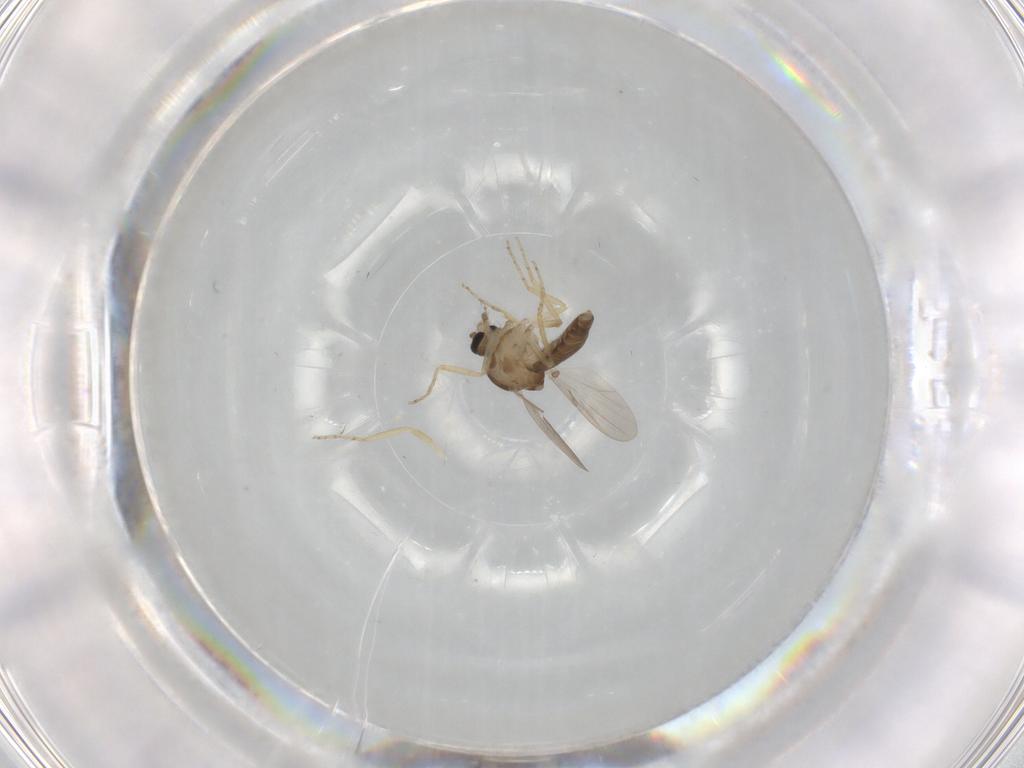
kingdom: Animalia
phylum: Arthropoda
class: Insecta
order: Diptera
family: Ceratopogonidae
